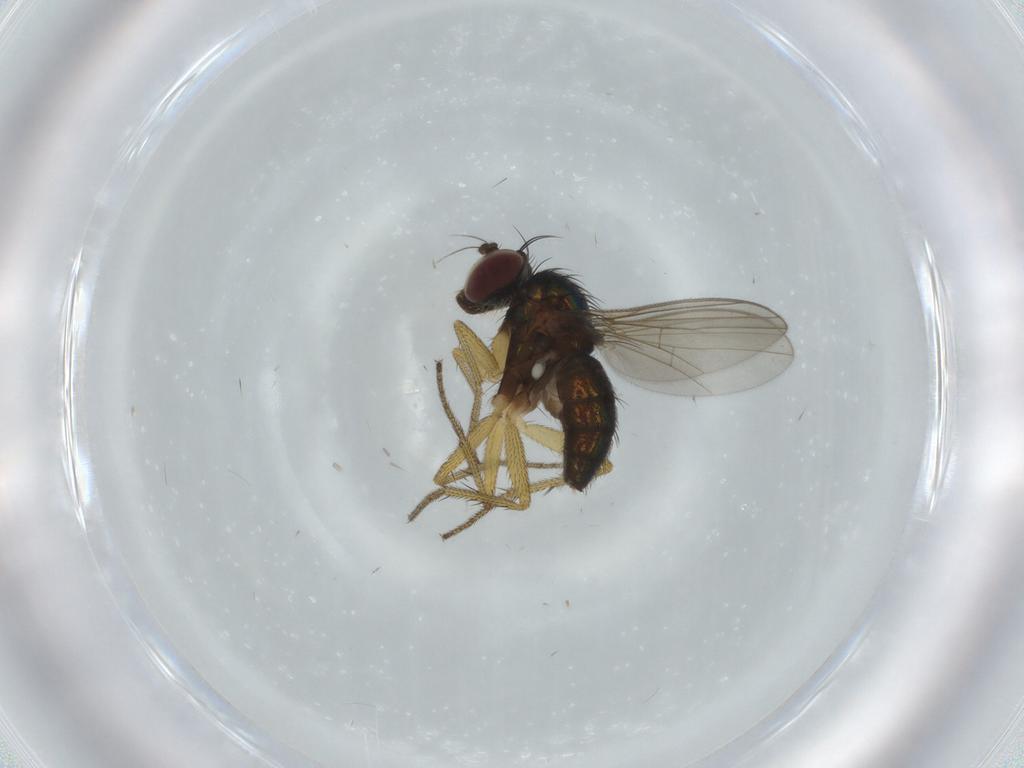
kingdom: Animalia
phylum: Arthropoda
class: Insecta
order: Diptera
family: Dolichopodidae
